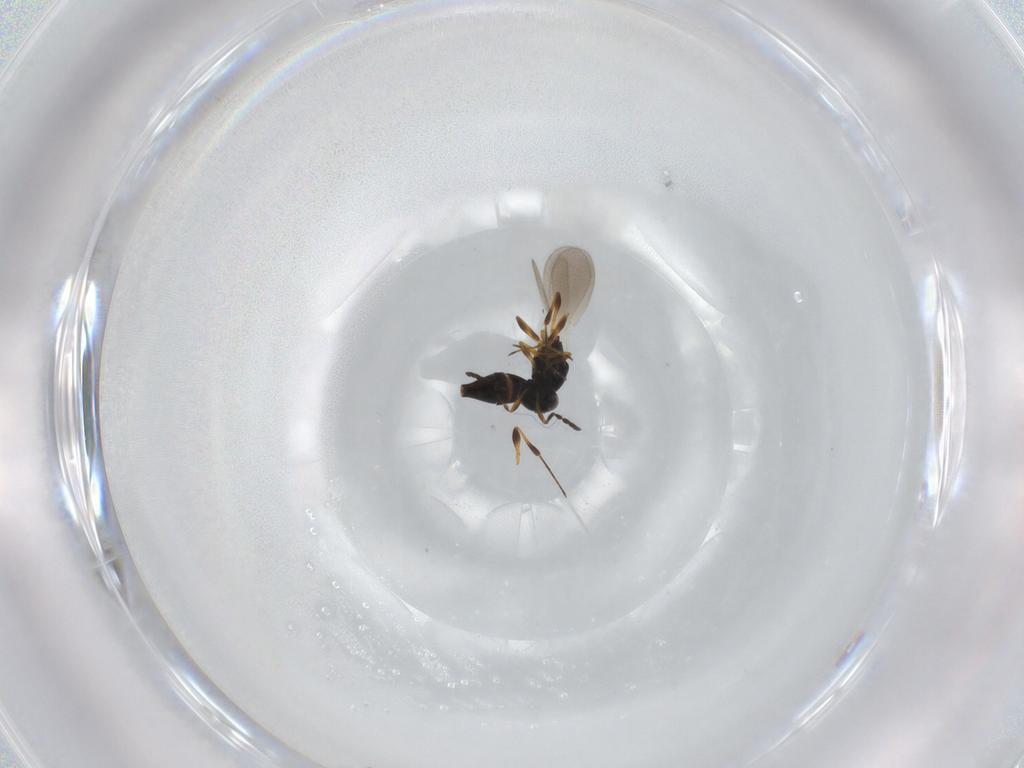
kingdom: Animalia
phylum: Arthropoda
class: Insecta
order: Hymenoptera
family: Platygastridae
